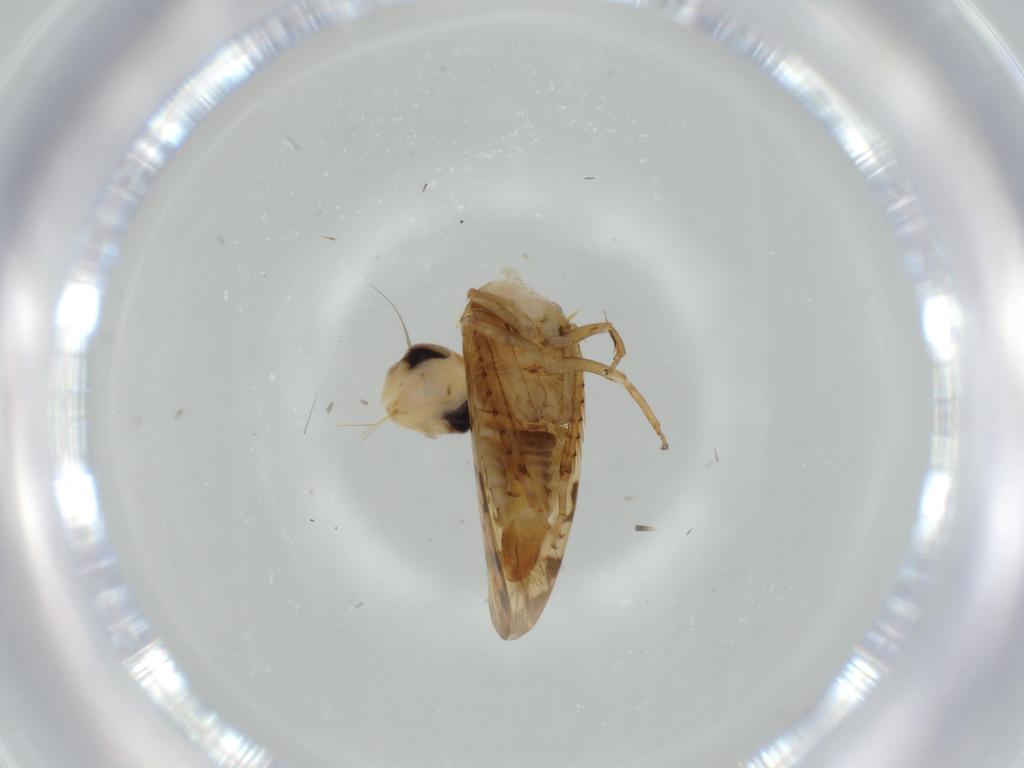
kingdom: Animalia
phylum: Arthropoda
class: Insecta
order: Hemiptera
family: Cicadellidae
